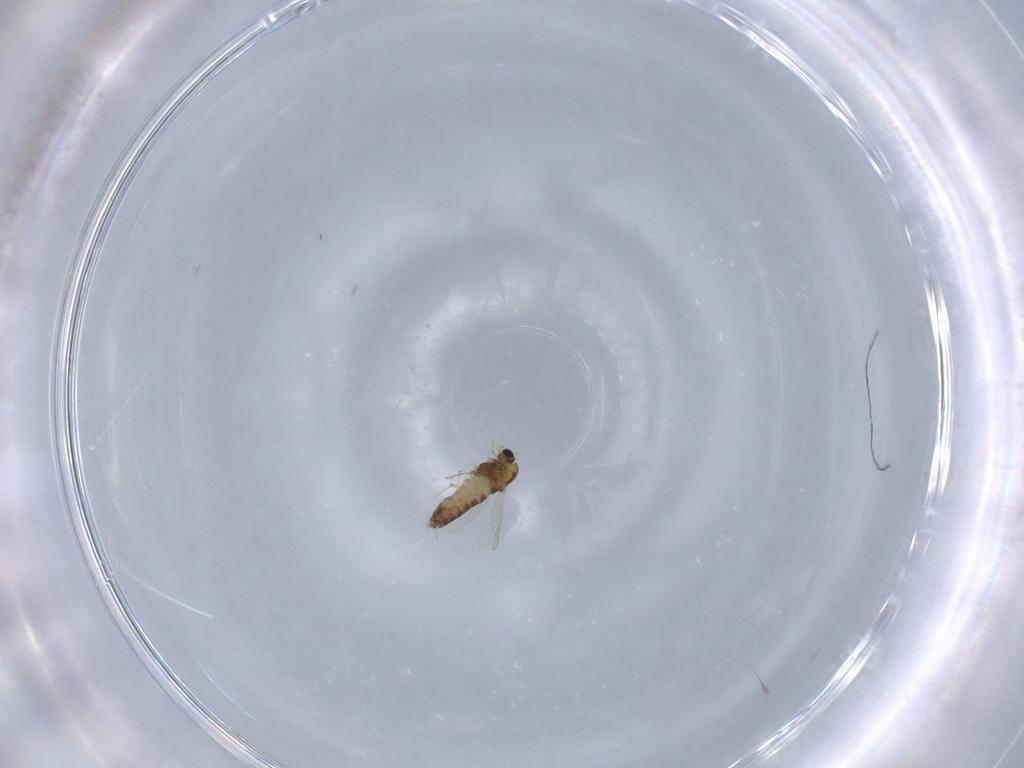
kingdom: Animalia
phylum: Arthropoda
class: Insecta
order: Diptera
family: Chironomidae
